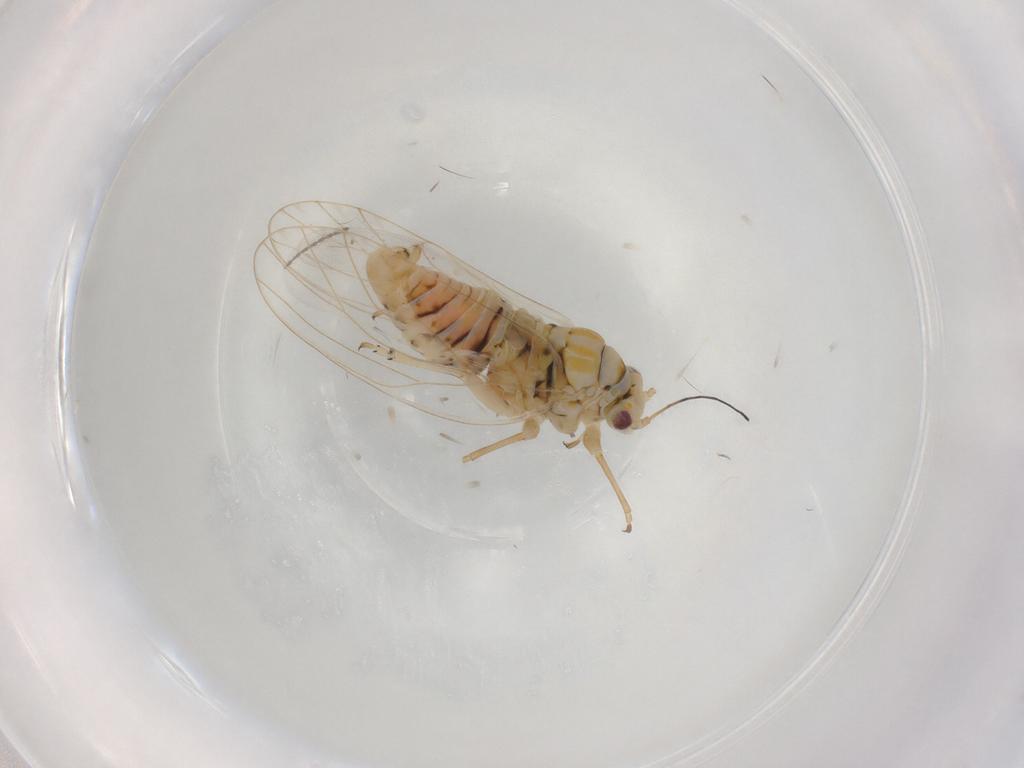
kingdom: Animalia
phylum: Arthropoda
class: Insecta
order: Hemiptera
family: Psylloidea_incertae_sedis
